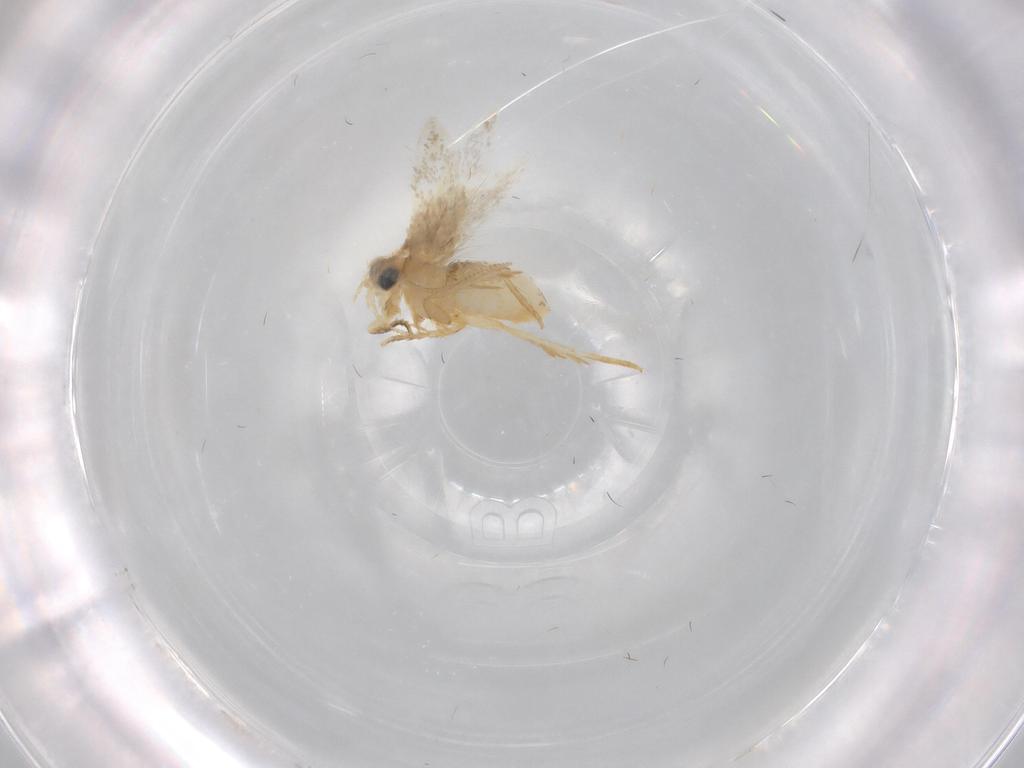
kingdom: Animalia
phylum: Arthropoda
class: Insecta
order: Lepidoptera
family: Nepticulidae
